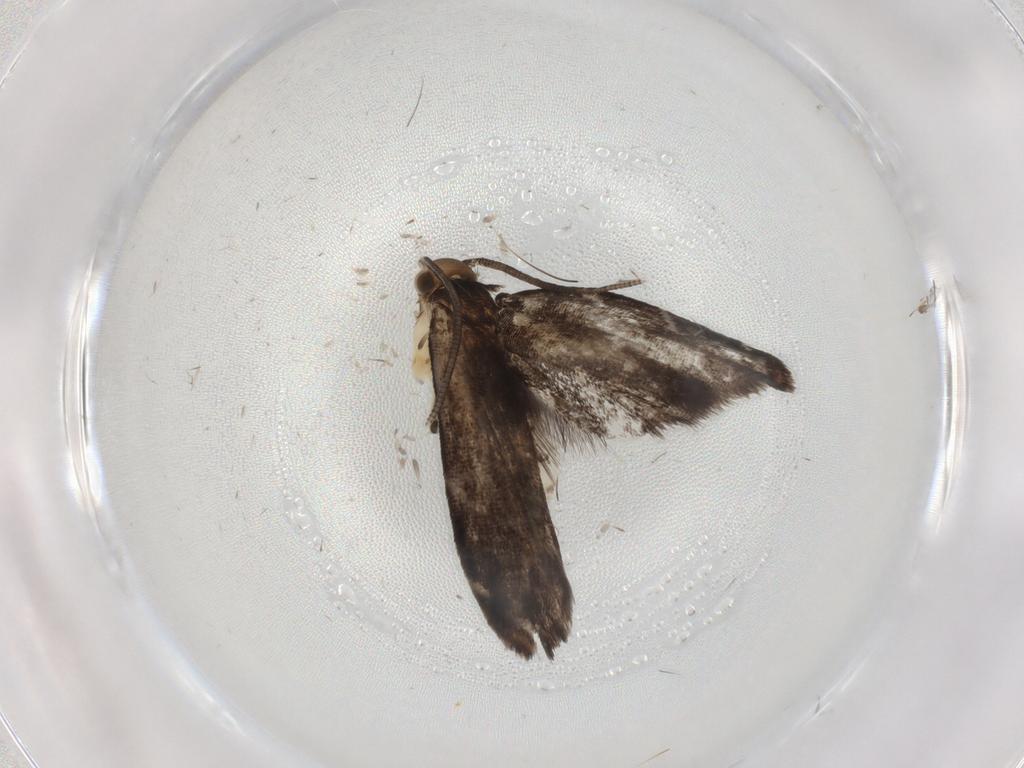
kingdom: Animalia
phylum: Arthropoda
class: Insecta
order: Lepidoptera
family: Dryadaulidae
